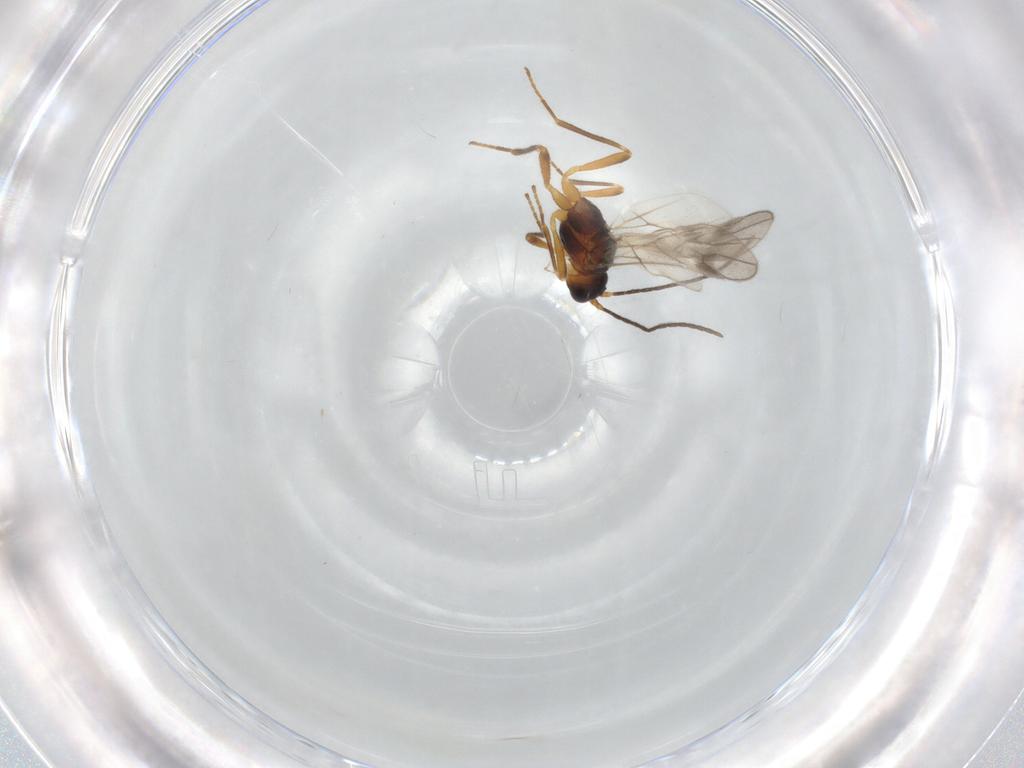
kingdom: Animalia
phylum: Arthropoda
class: Insecta
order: Hymenoptera
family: Braconidae
